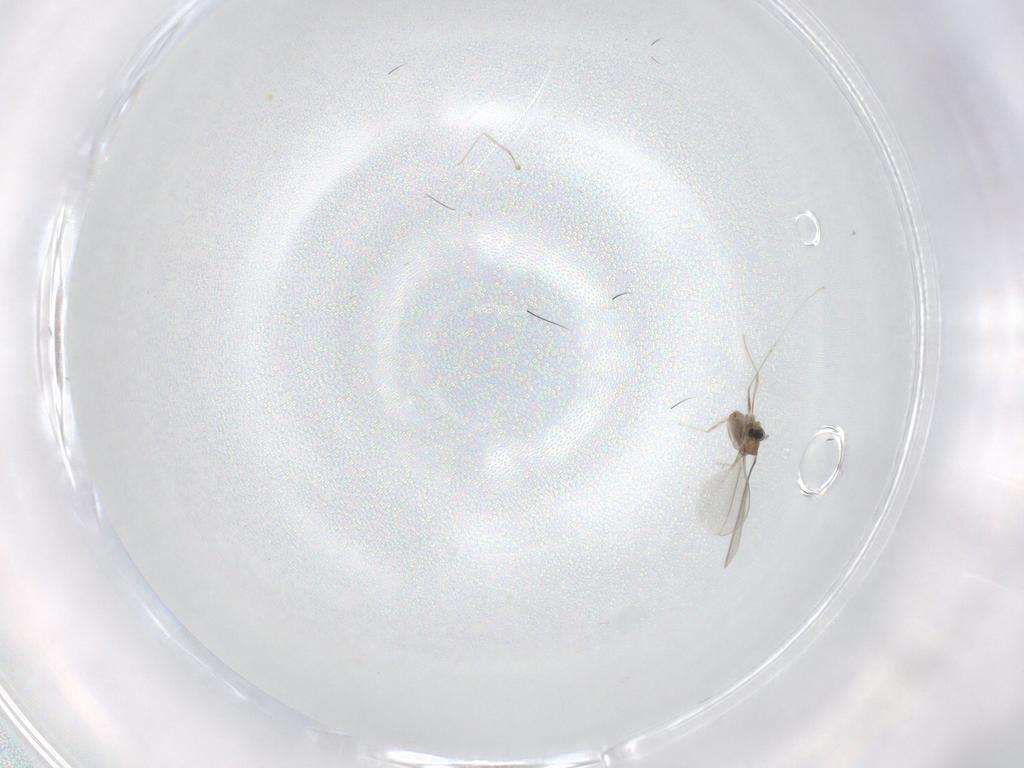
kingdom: Animalia
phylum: Arthropoda
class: Insecta
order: Diptera
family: Cecidomyiidae
